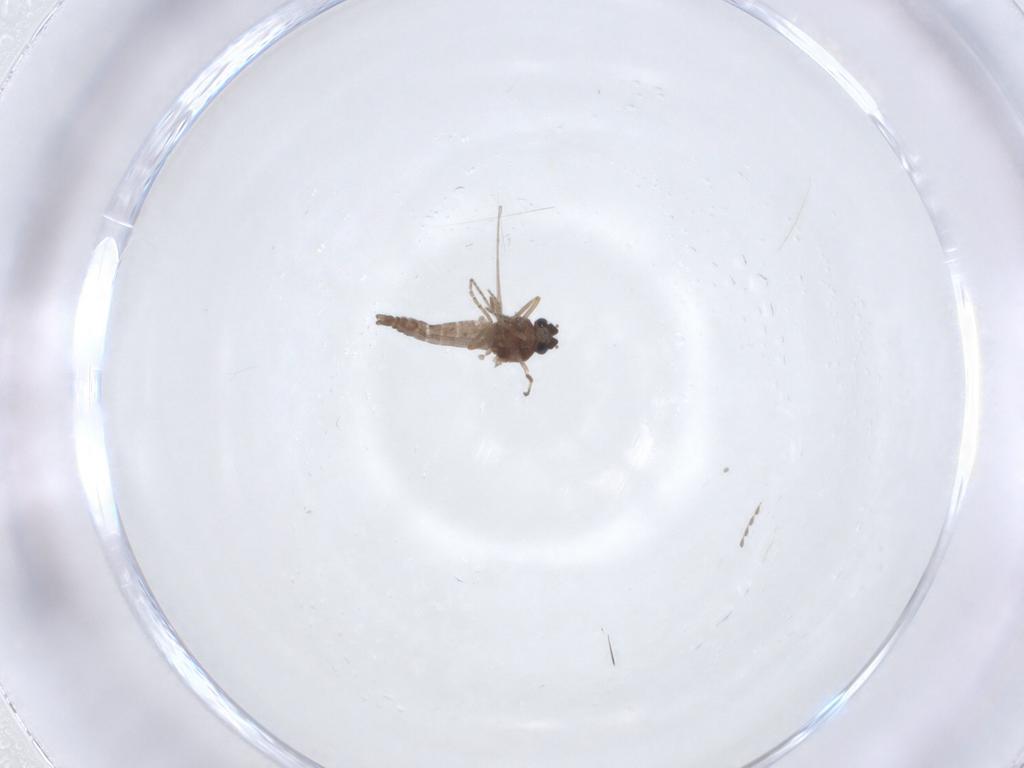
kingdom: Animalia
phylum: Arthropoda
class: Insecta
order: Diptera
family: Ceratopogonidae
